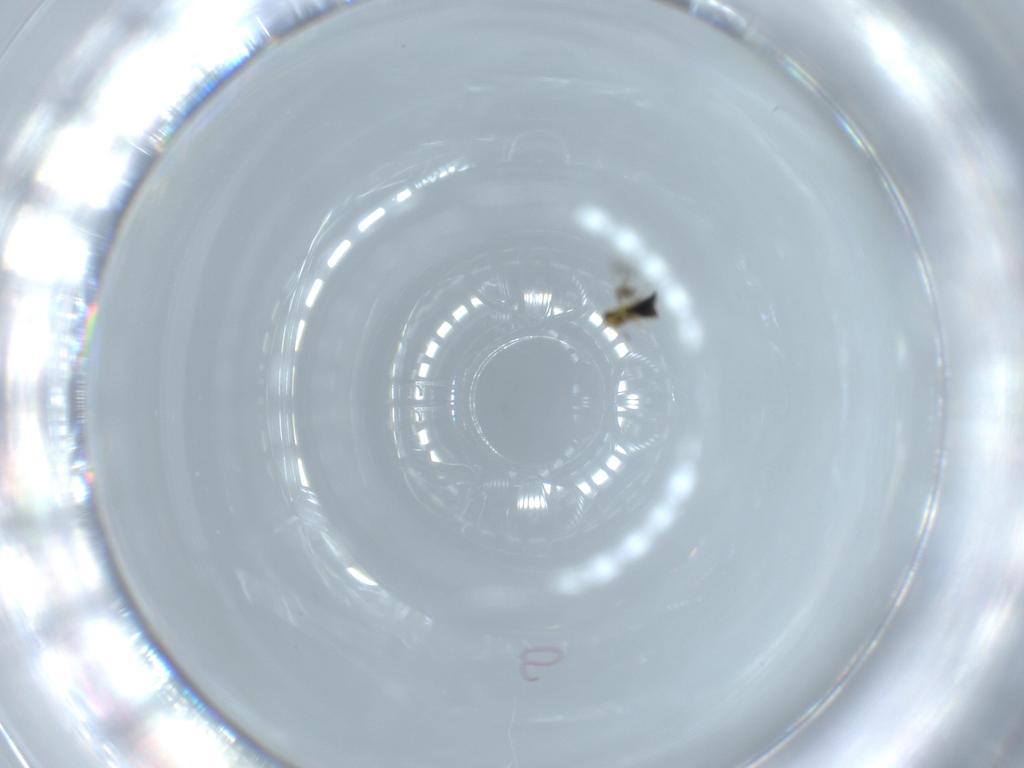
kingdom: Animalia
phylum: Arthropoda
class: Insecta
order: Hymenoptera
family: Signiphoridae
